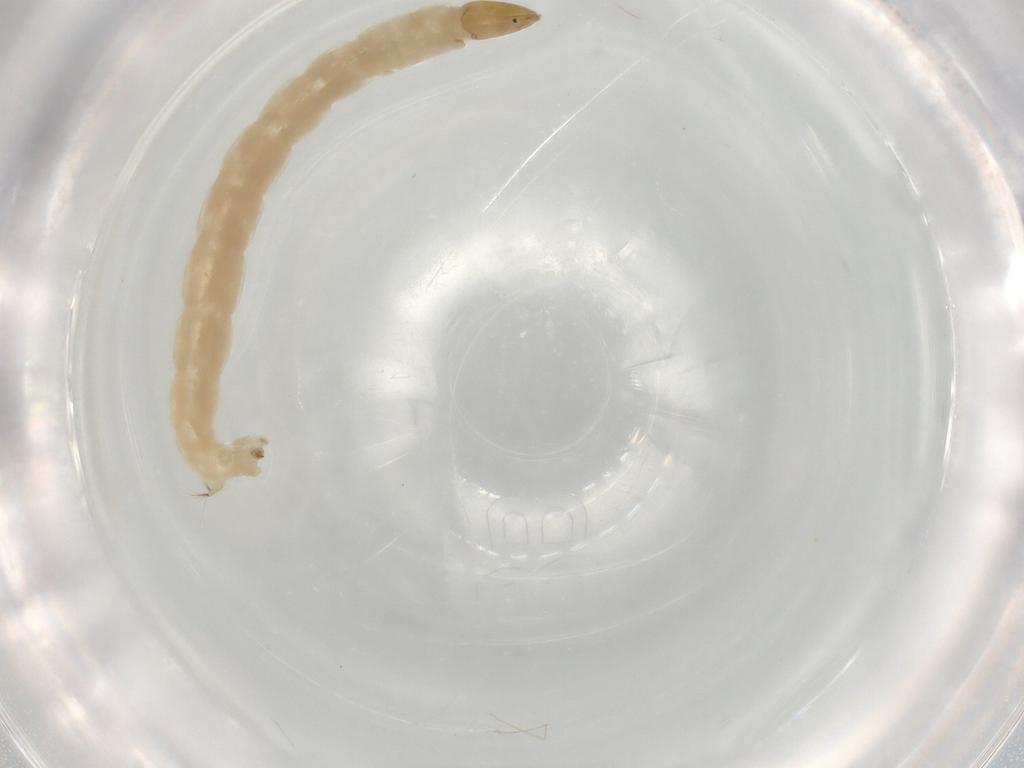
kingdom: Animalia
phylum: Arthropoda
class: Insecta
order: Diptera
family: Chironomidae
